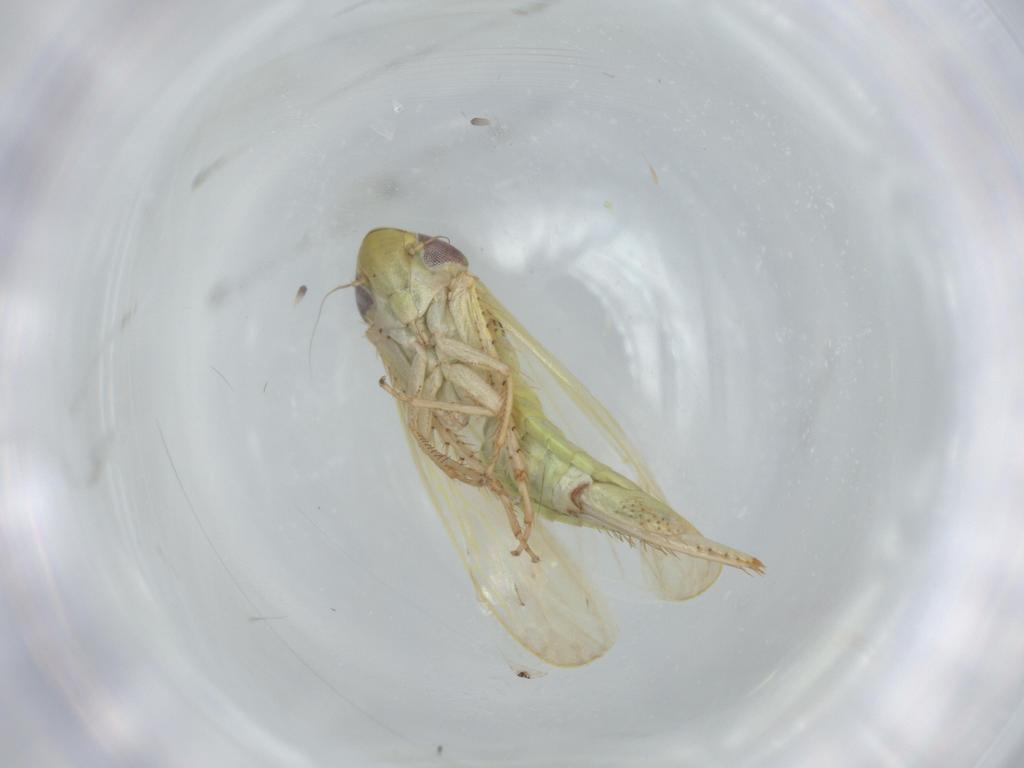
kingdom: Animalia
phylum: Arthropoda
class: Insecta
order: Hemiptera
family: Cicadellidae
